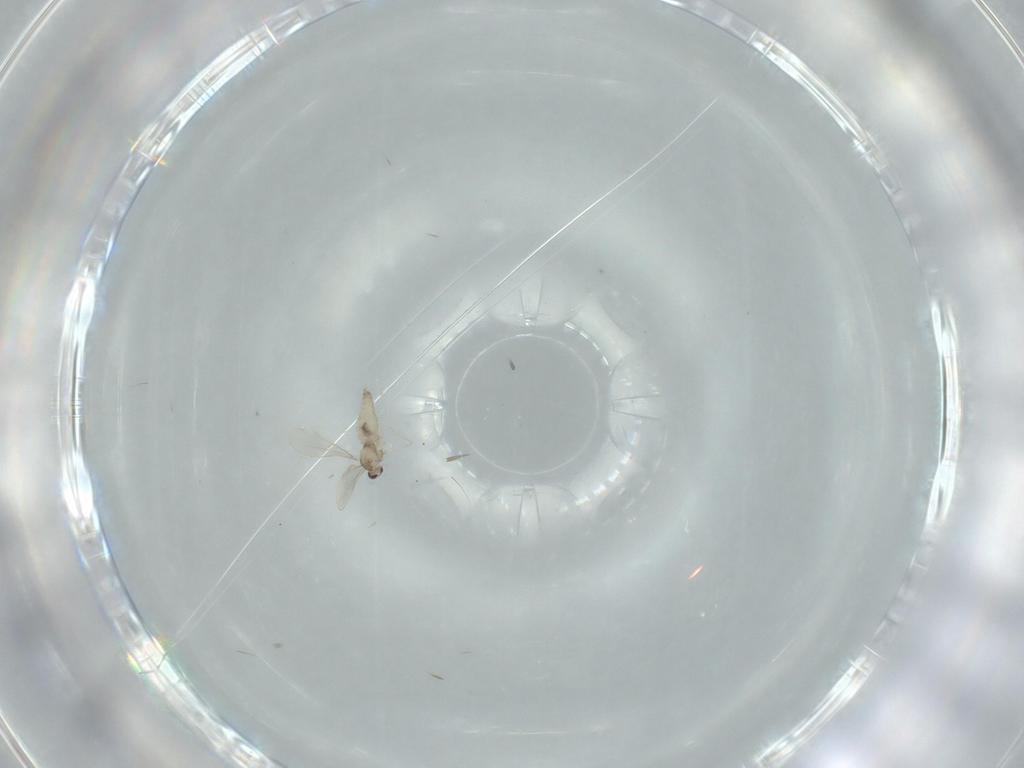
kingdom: Animalia
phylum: Arthropoda
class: Insecta
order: Diptera
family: Cecidomyiidae
